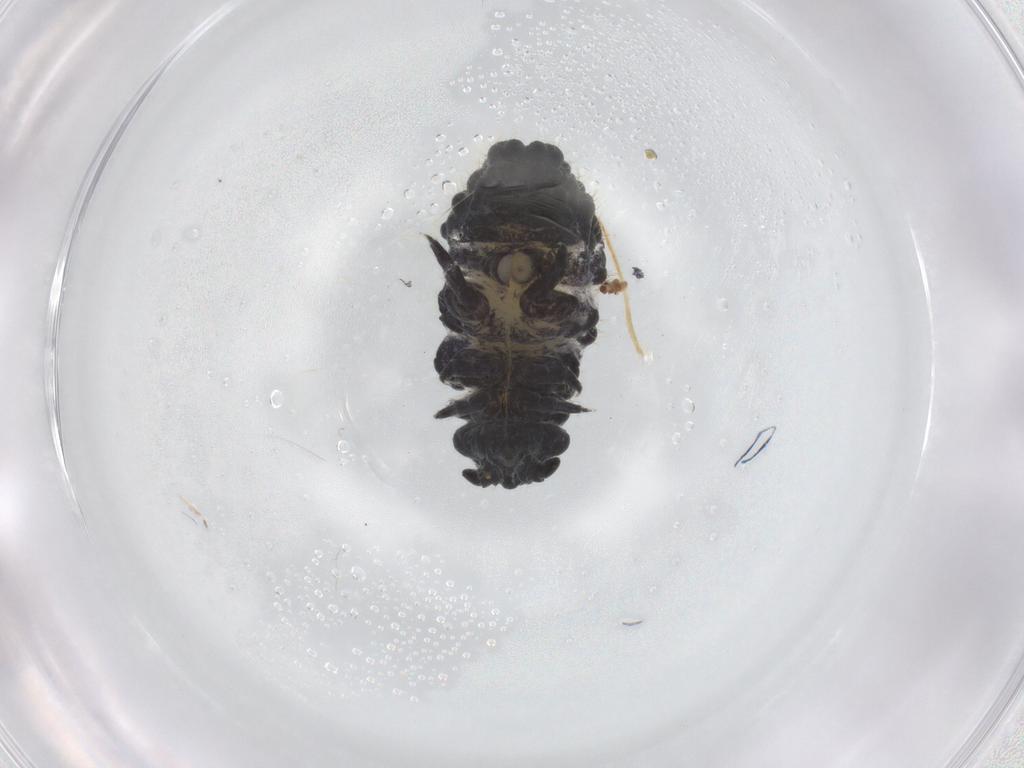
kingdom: Animalia
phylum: Arthropoda
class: Collembola
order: Poduromorpha
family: Hypogastruridae
